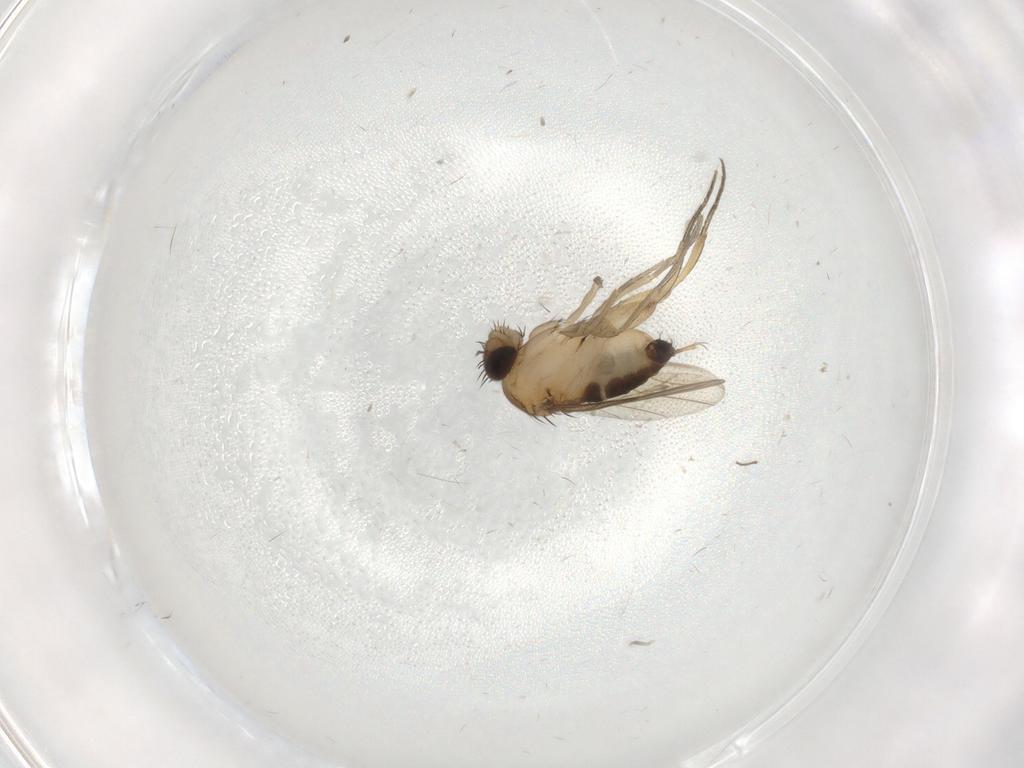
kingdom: Animalia
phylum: Arthropoda
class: Insecta
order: Diptera
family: Phoridae
